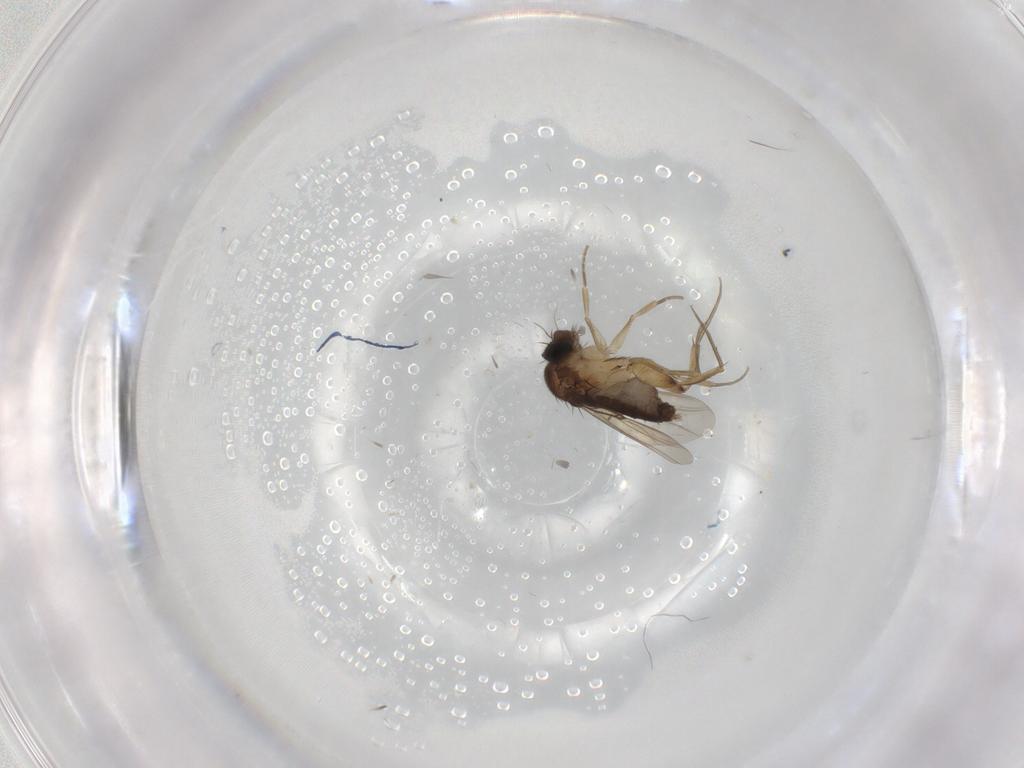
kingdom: Animalia
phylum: Arthropoda
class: Insecta
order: Diptera
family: Phoridae
